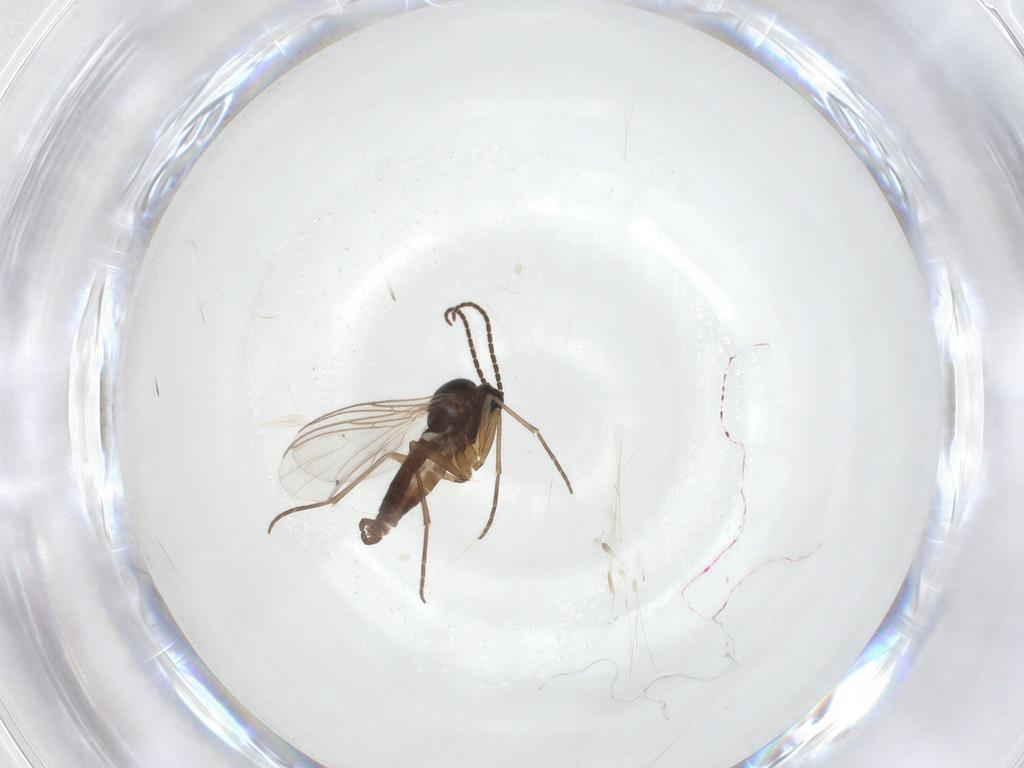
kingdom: Animalia
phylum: Arthropoda
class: Insecta
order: Diptera
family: Sciaridae
